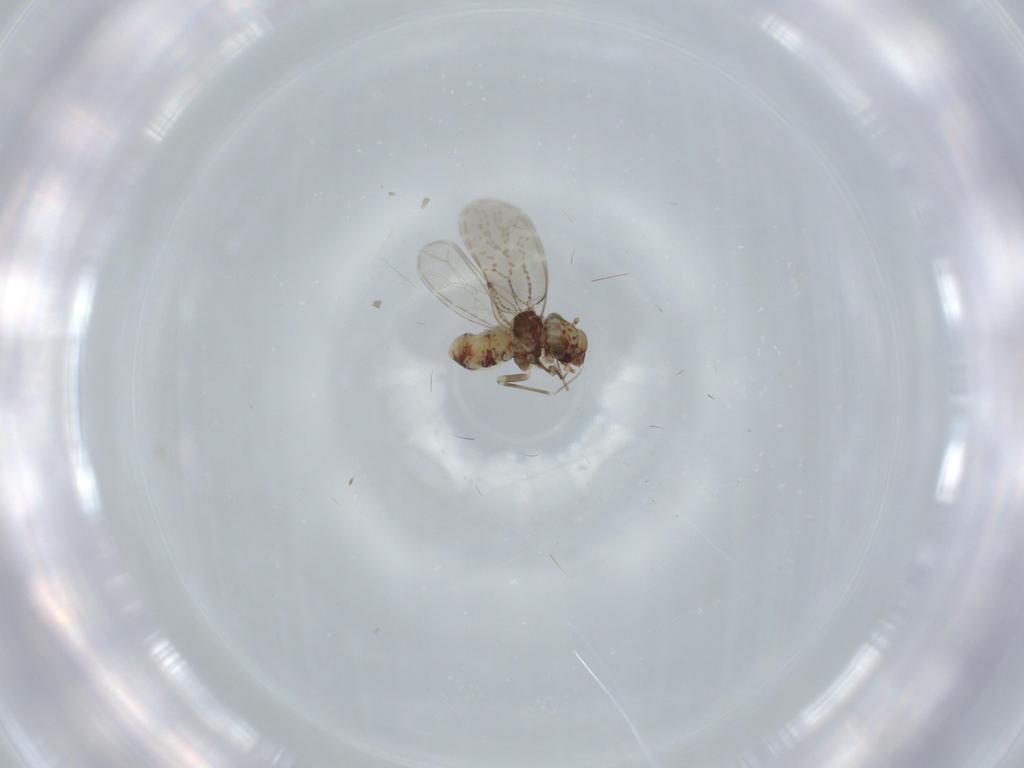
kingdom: Animalia
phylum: Arthropoda
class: Insecta
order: Psocodea
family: Musapsocidae
